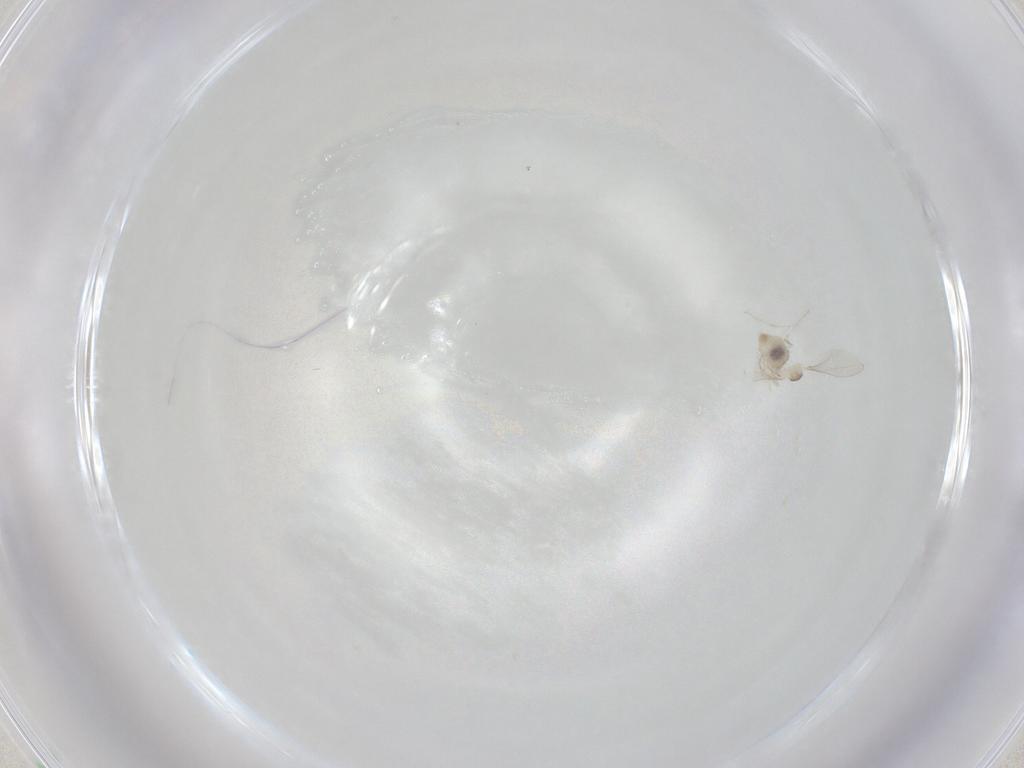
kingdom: Animalia
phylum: Arthropoda
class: Insecta
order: Diptera
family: Cecidomyiidae
